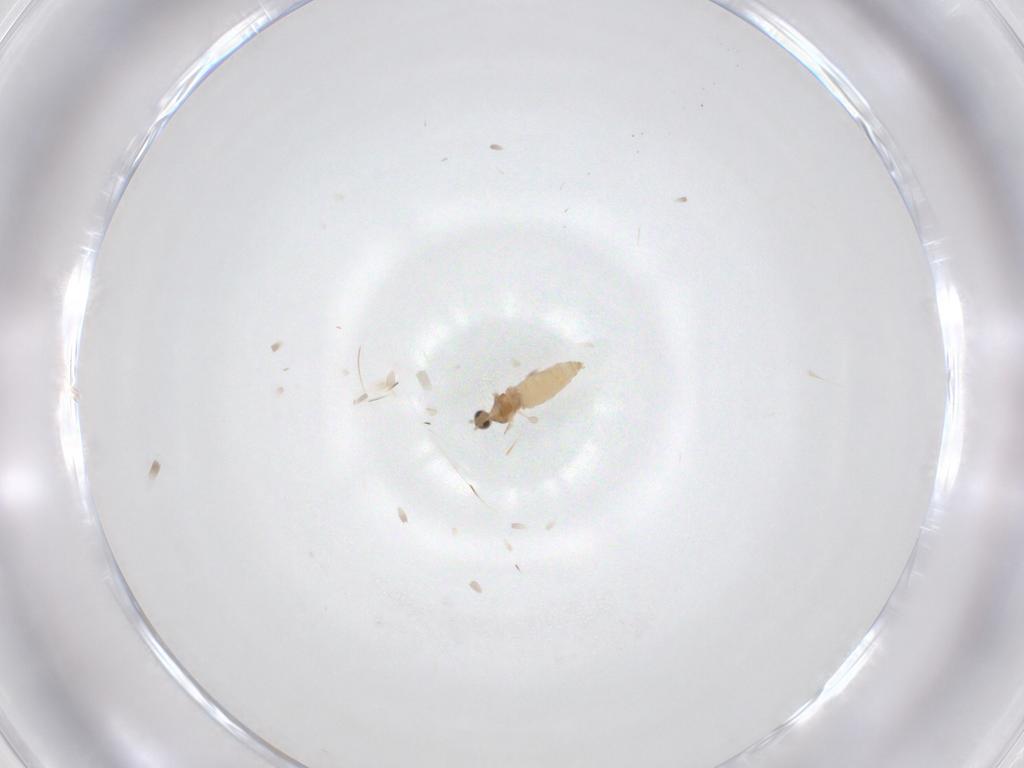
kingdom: Animalia
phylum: Arthropoda
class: Insecta
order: Diptera
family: Cecidomyiidae
